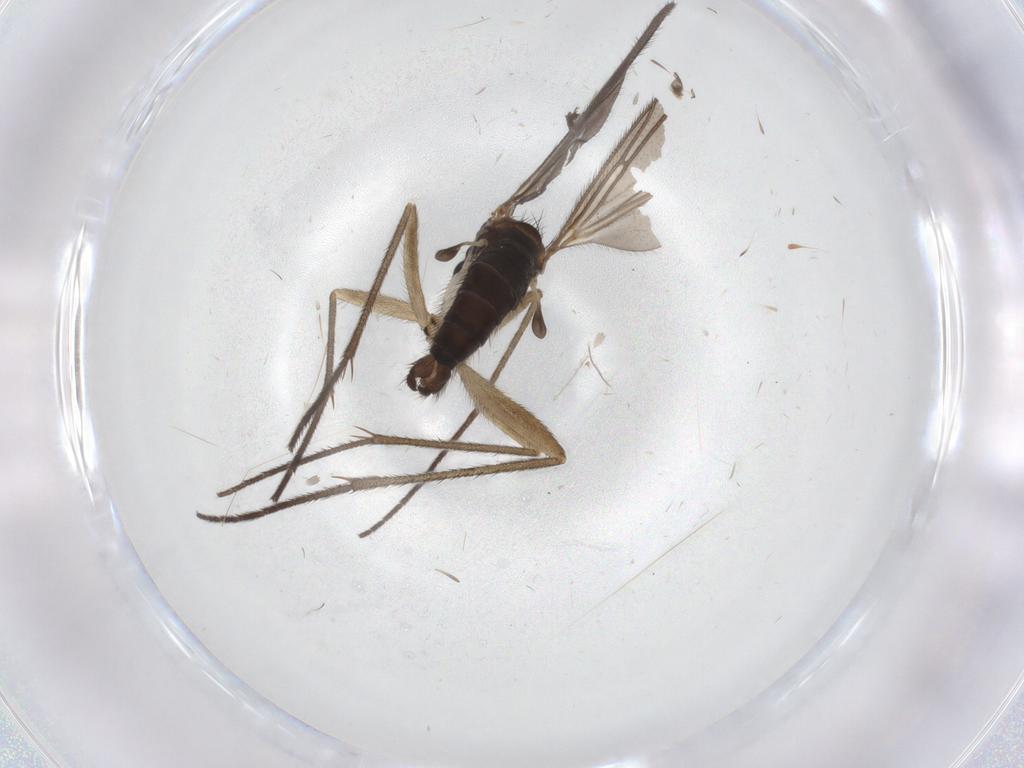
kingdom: Animalia
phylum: Arthropoda
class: Insecta
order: Diptera
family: Sciaridae
